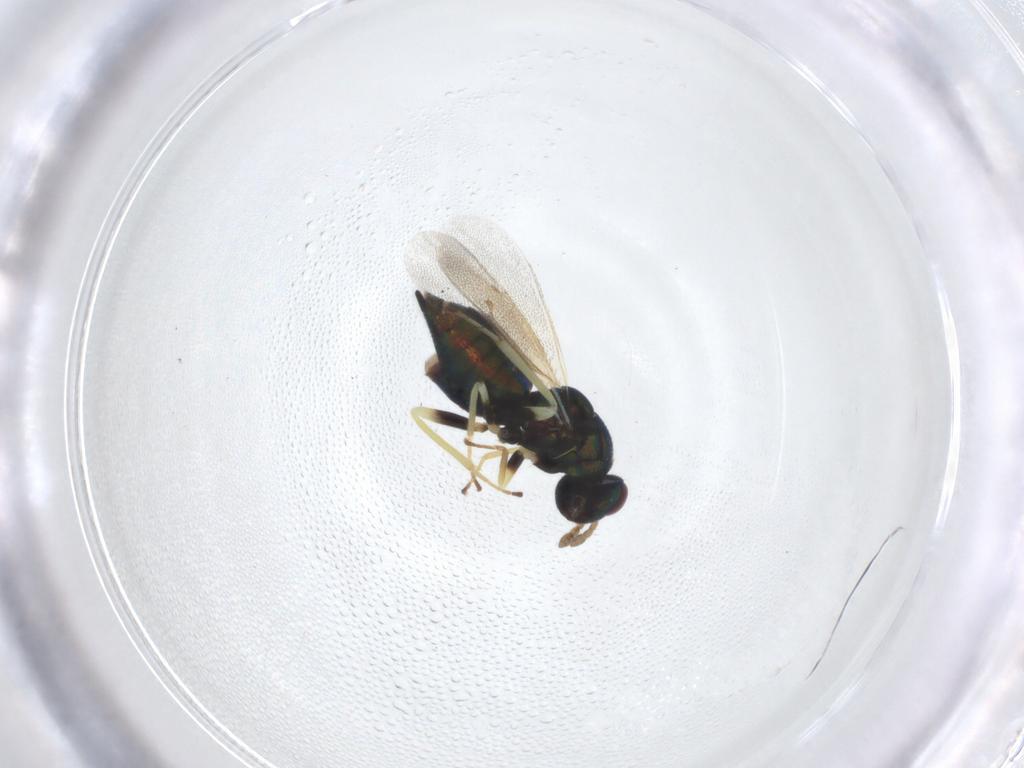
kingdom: Animalia
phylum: Arthropoda
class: Insecta
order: Hymenoptera
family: Eulophidae
